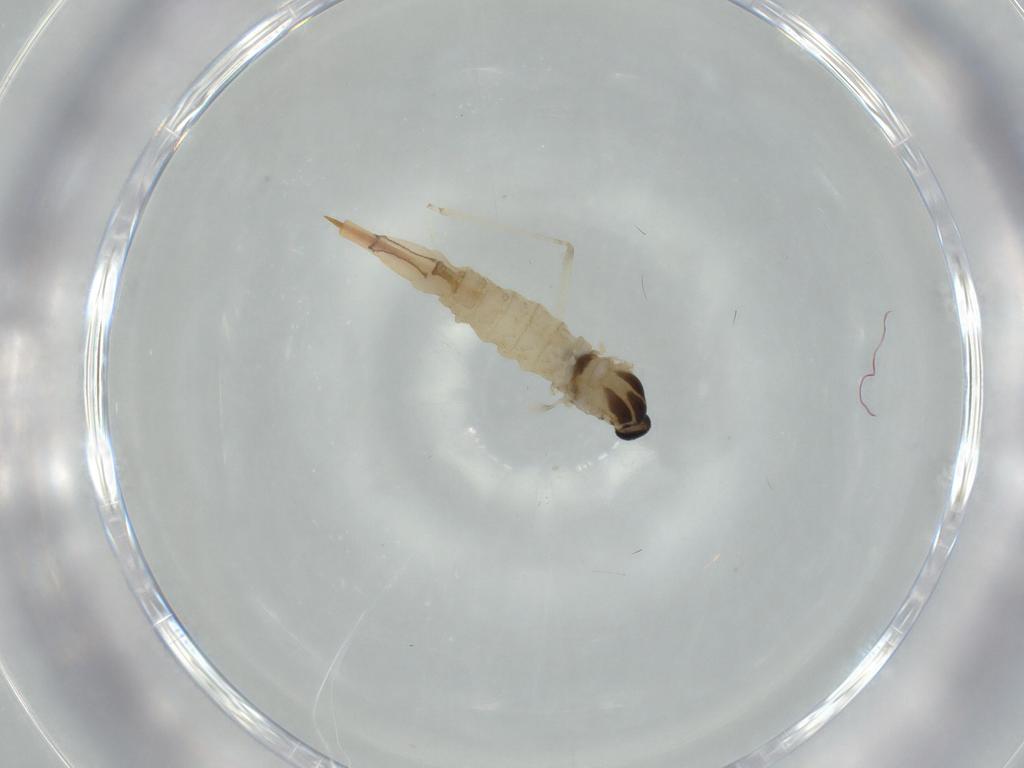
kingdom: Animalia
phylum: Arthropoda
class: Insecta
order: Diptera
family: Cecidomyiidae
